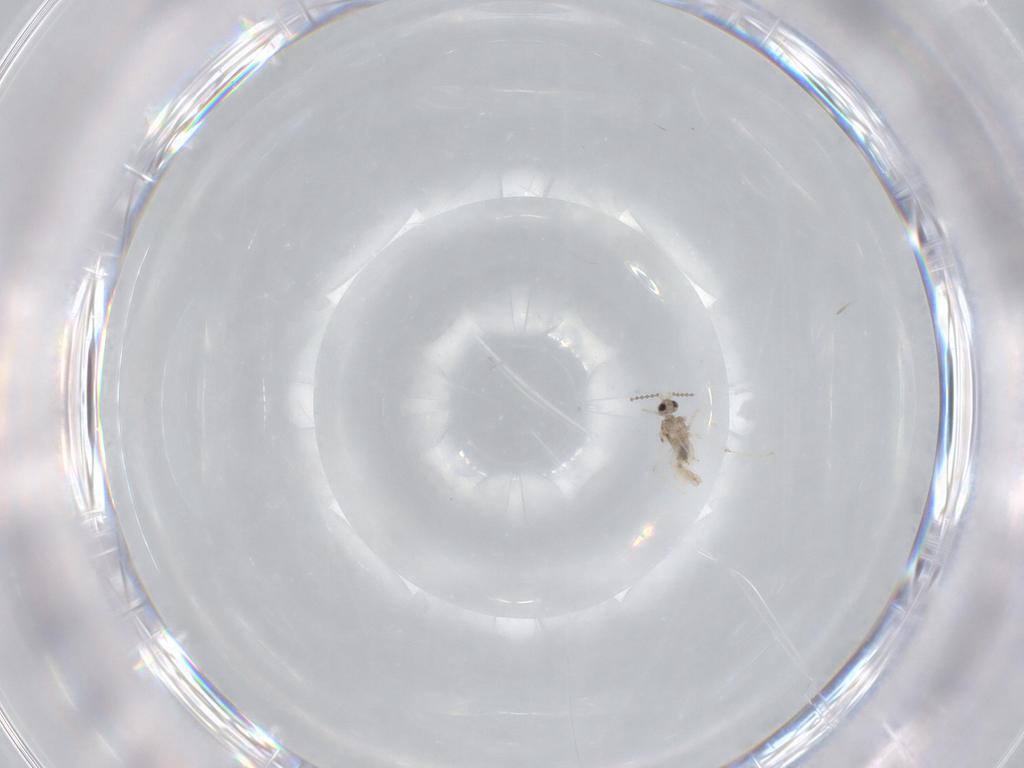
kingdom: Animalia
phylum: Arthropoda
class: Insecta
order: Diptera
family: Cecidomyiidae
